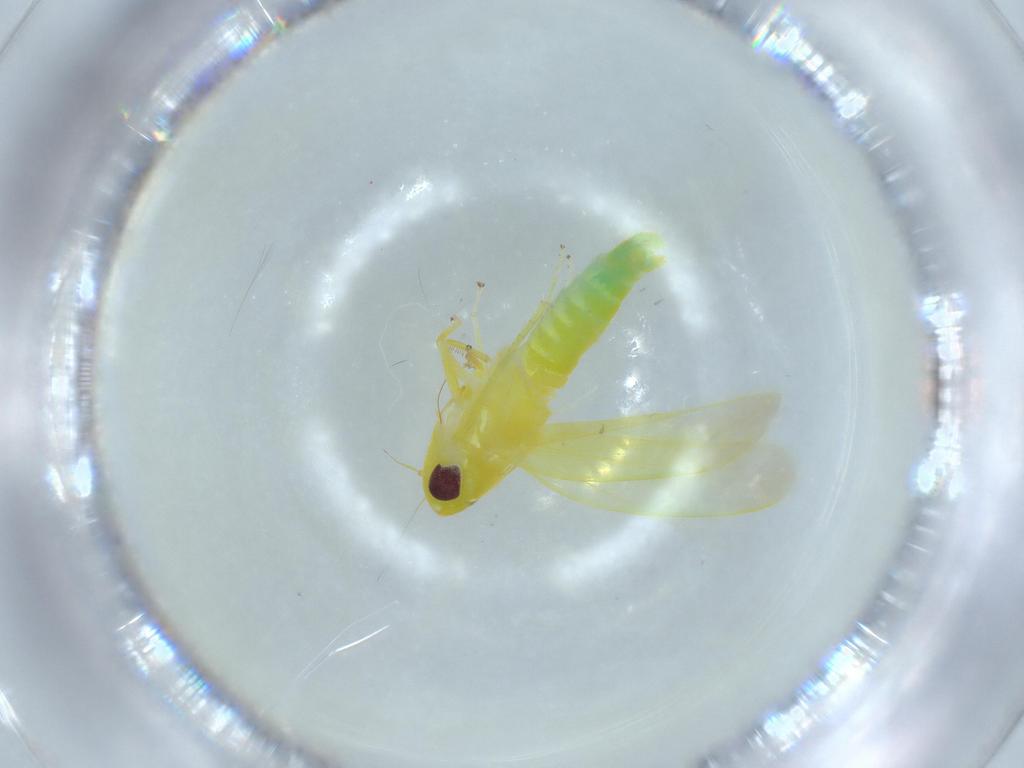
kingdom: Animalia
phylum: Arthropoda
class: Insecta
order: Hemiptera
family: Cicadellidae
